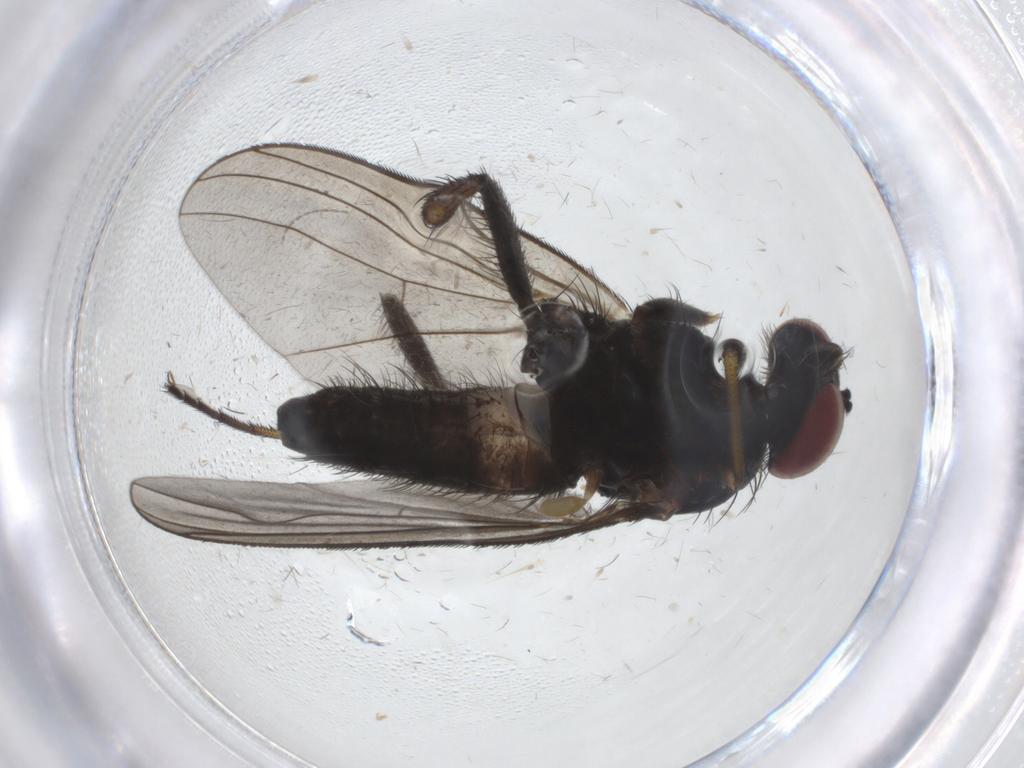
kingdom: Animalia
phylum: Arthropoda
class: Insecta
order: Diptera
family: Dolichopodidae
